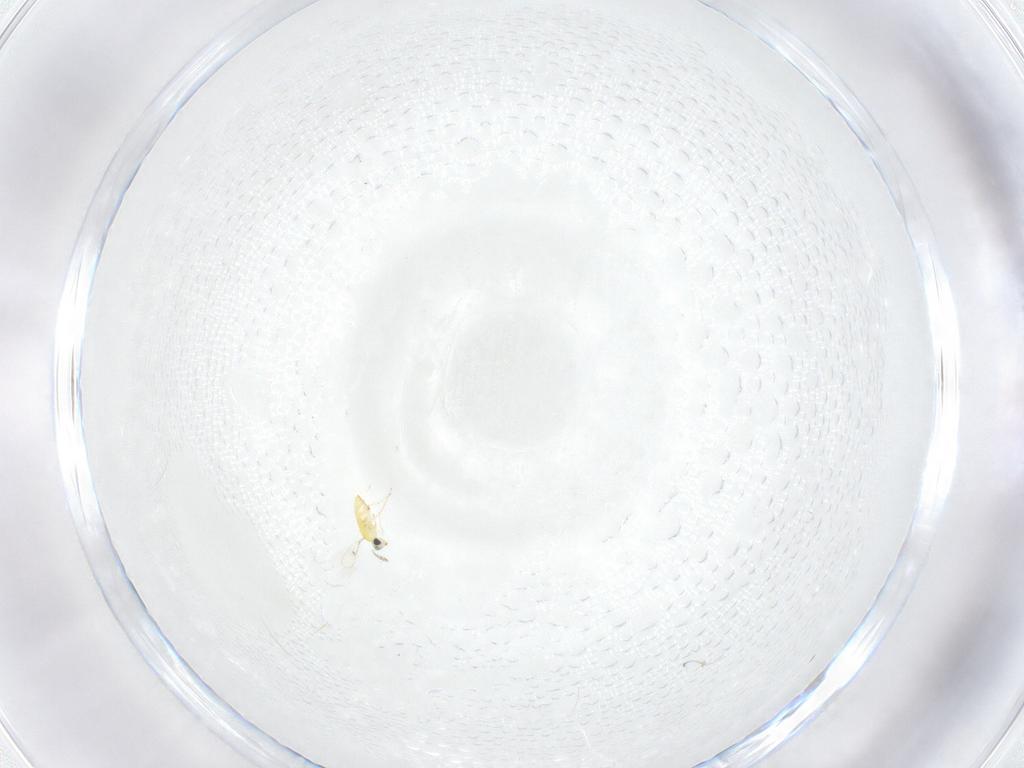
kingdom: Animalia
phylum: Arthropoda
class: Insecta
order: Hymenoptera
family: Trichogrammatidae
